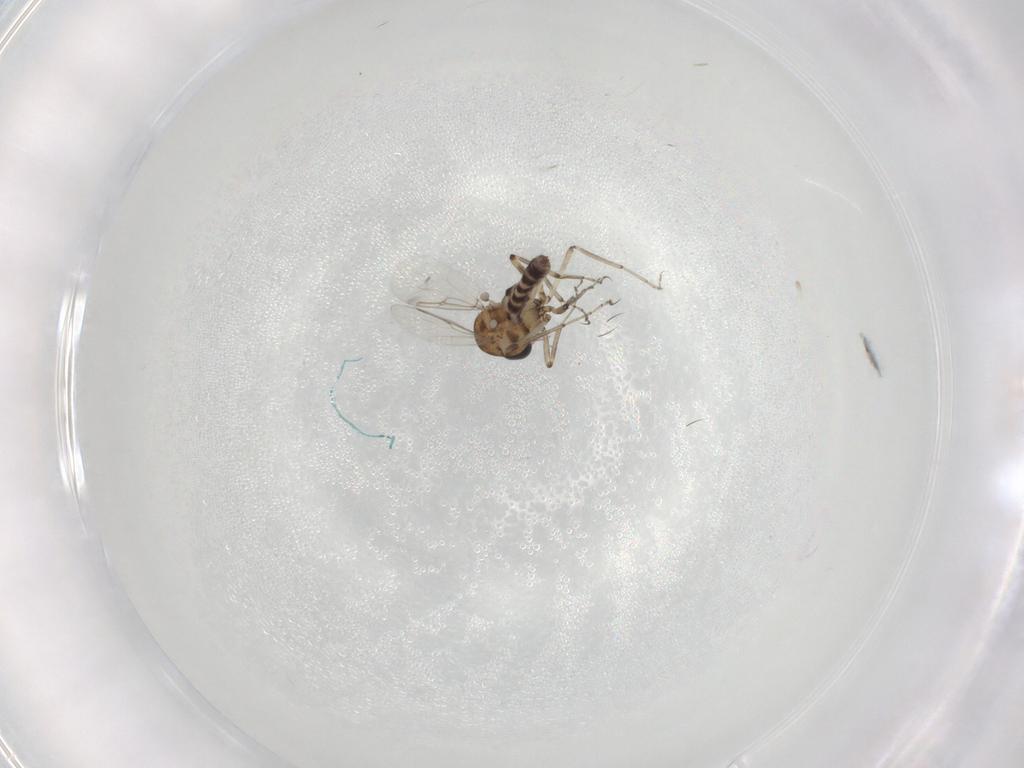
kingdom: Animalia
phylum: Arthropoda
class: Insecta
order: Diptera
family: Ceratopogonidae
